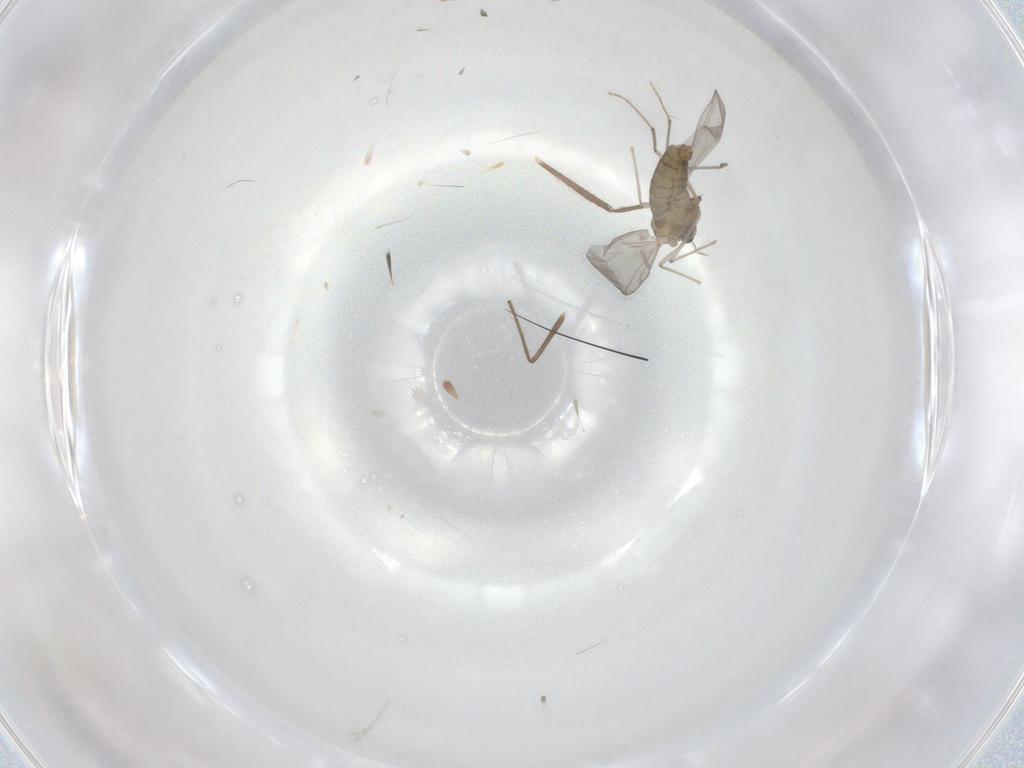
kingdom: Animalia
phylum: Arthropoda
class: Insecta
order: Diptera
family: Chironomidae
